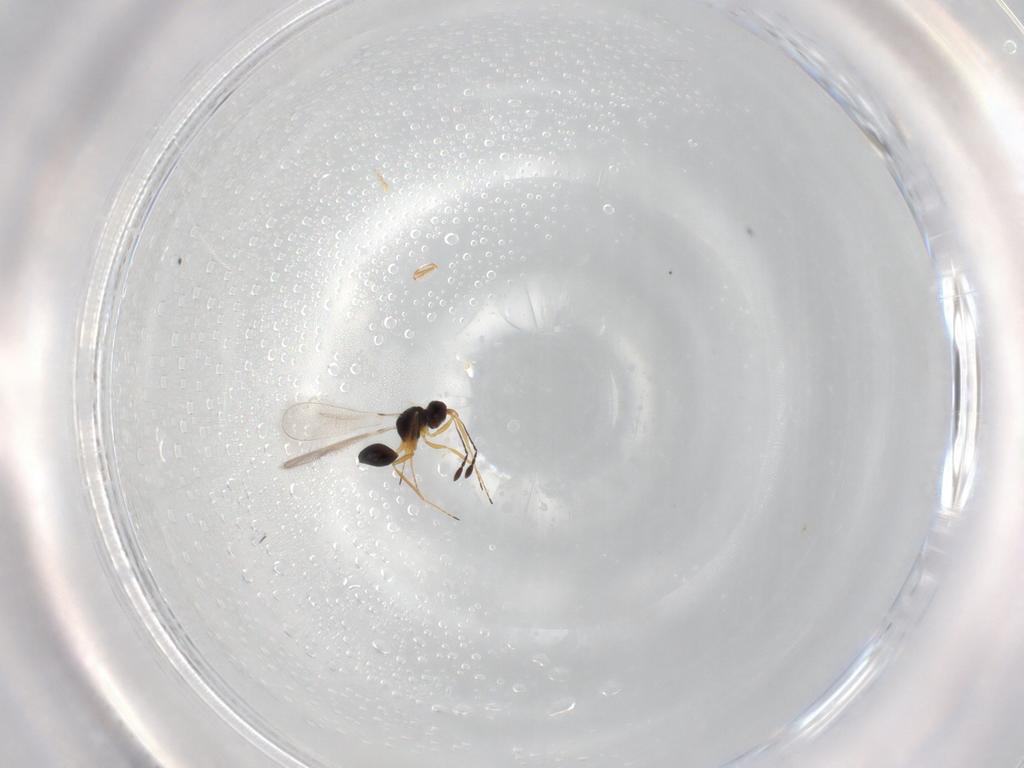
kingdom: Animalia
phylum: Arthropoda
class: Insecta
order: Hymenoptera
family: Mymaridae
